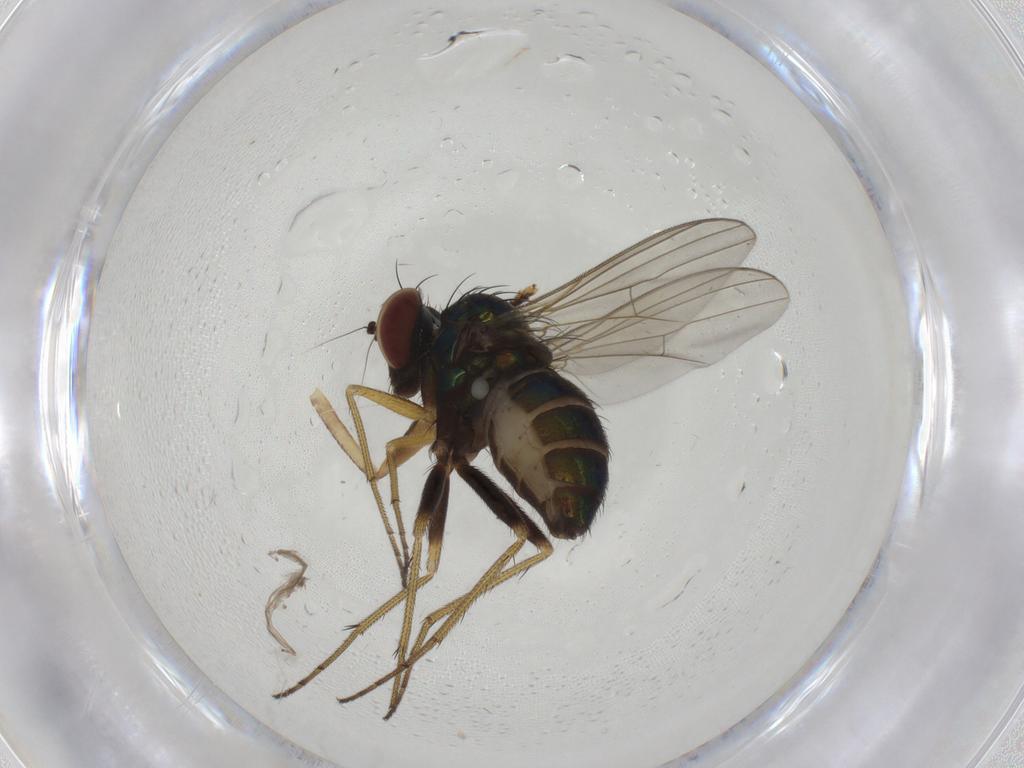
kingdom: Animalia
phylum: Arthropoda
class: Insecta
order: Diptera
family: Dolichopodidae
